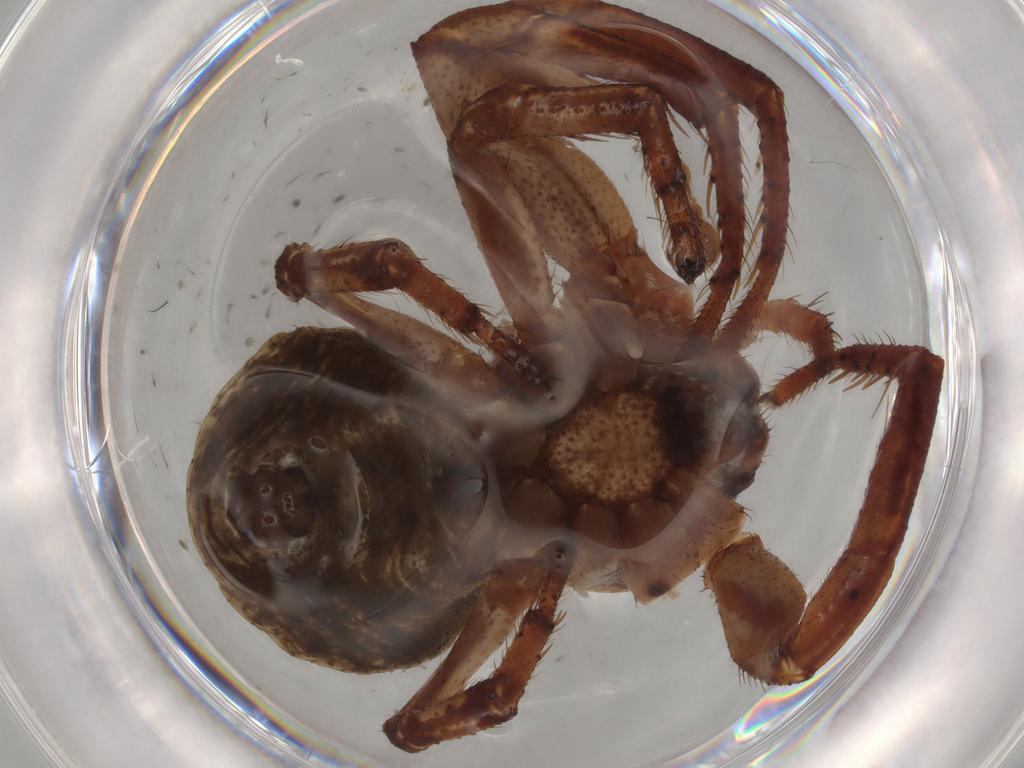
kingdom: Animalia
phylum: Arthropoda
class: Arachnida
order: Araneae
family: Thomisidae
